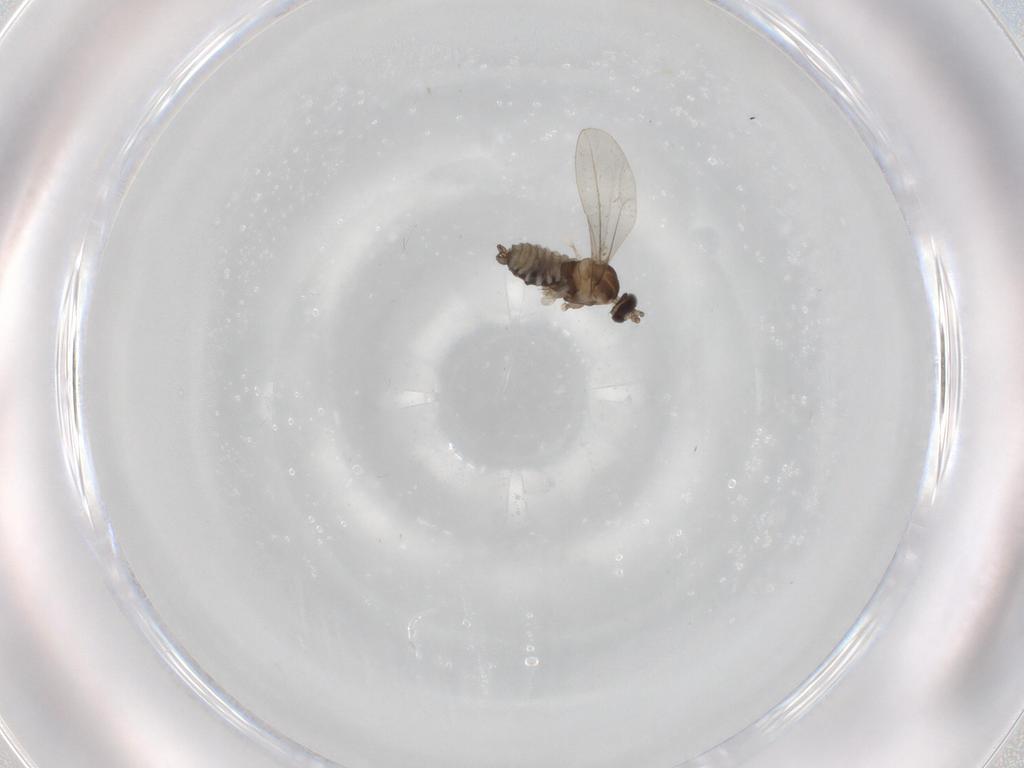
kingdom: Animalia
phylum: Arthropoda
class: Insecta
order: Diptera
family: Cecidomyiidae
